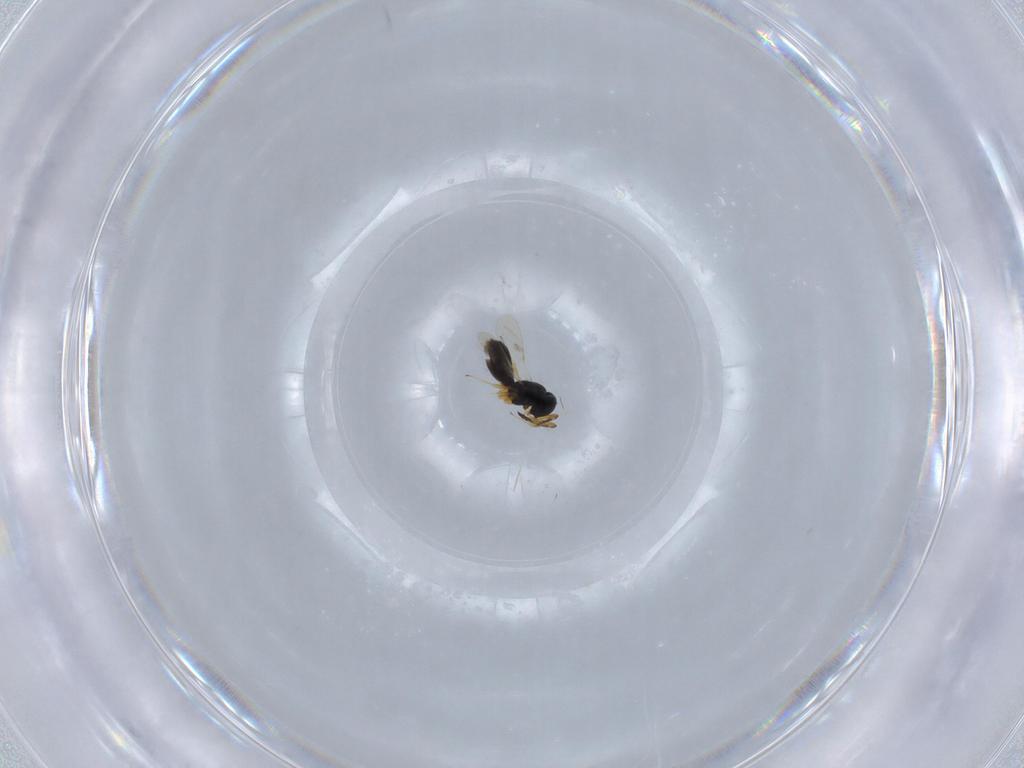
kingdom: Animalia
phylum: Arthropoda
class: Insecta
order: Hymenoptera
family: Scelionidae
